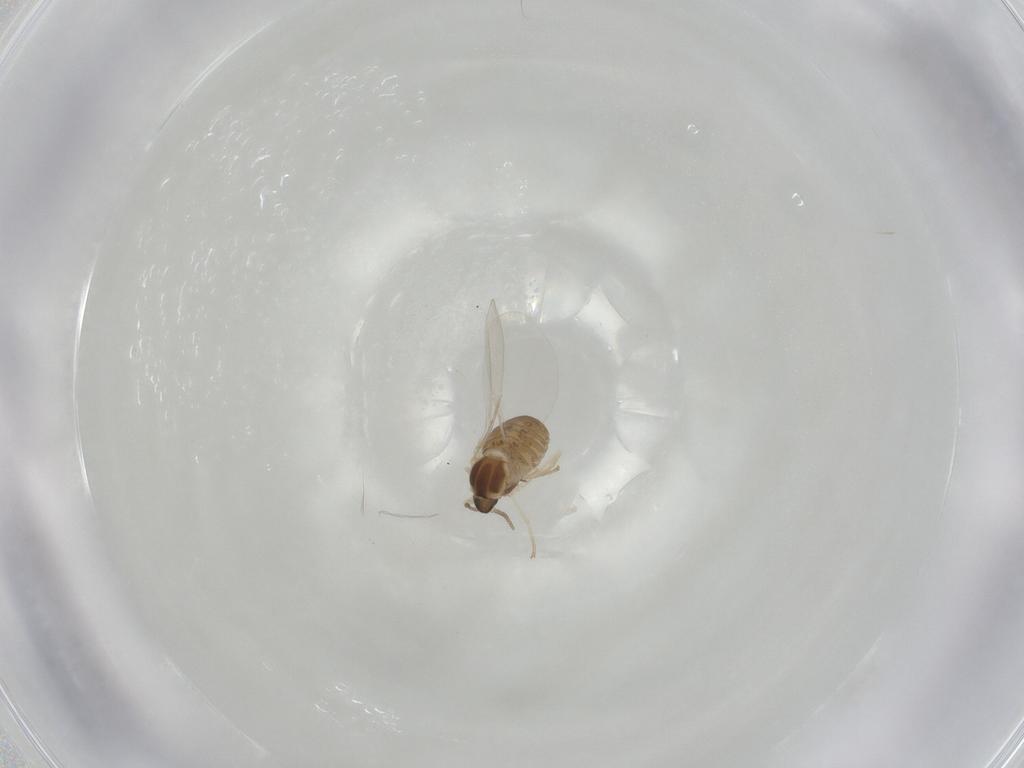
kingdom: Animalia
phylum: Arthropoda
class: Insecta
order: Diptera
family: Cecidomyiidae
